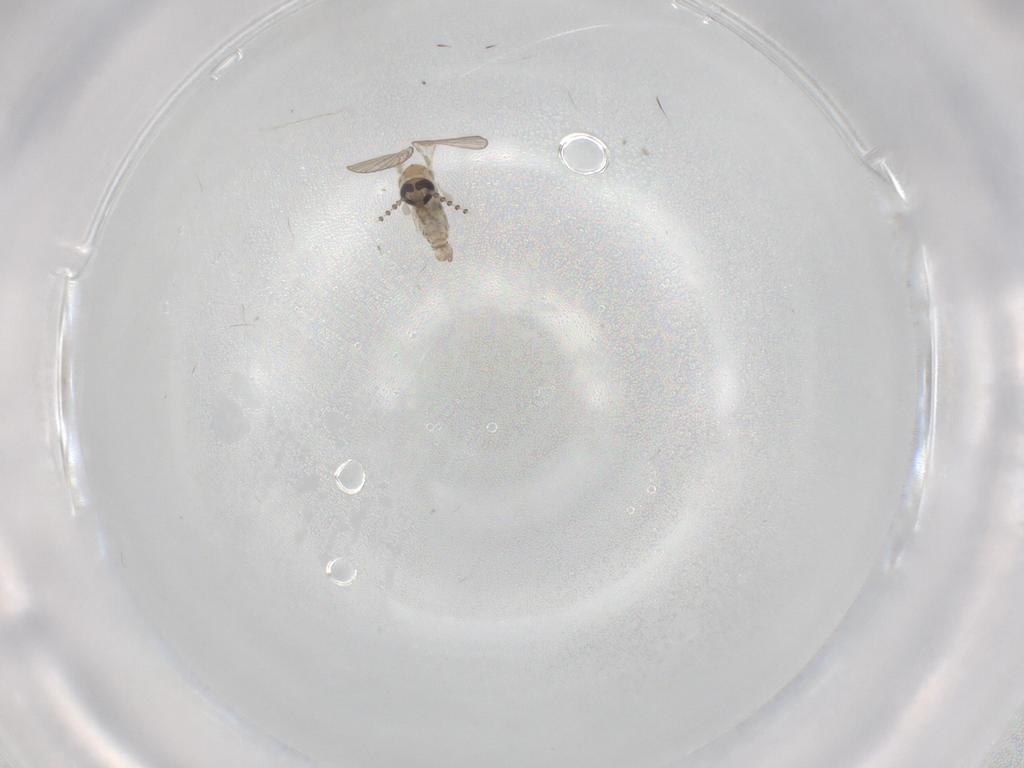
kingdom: Animalia
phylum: Arthropoda
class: Insecta
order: Diptera
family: Psychodidae
